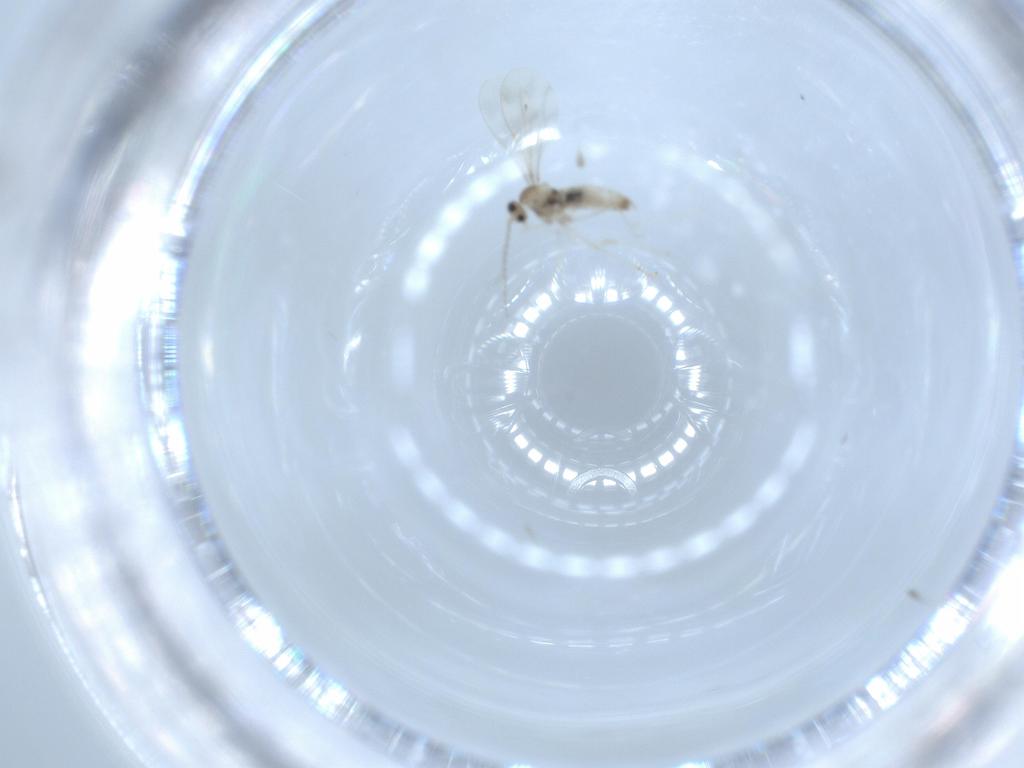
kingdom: Animalia
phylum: Arthropoda
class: Insecta
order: Diptera
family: Cecidomyiidae
